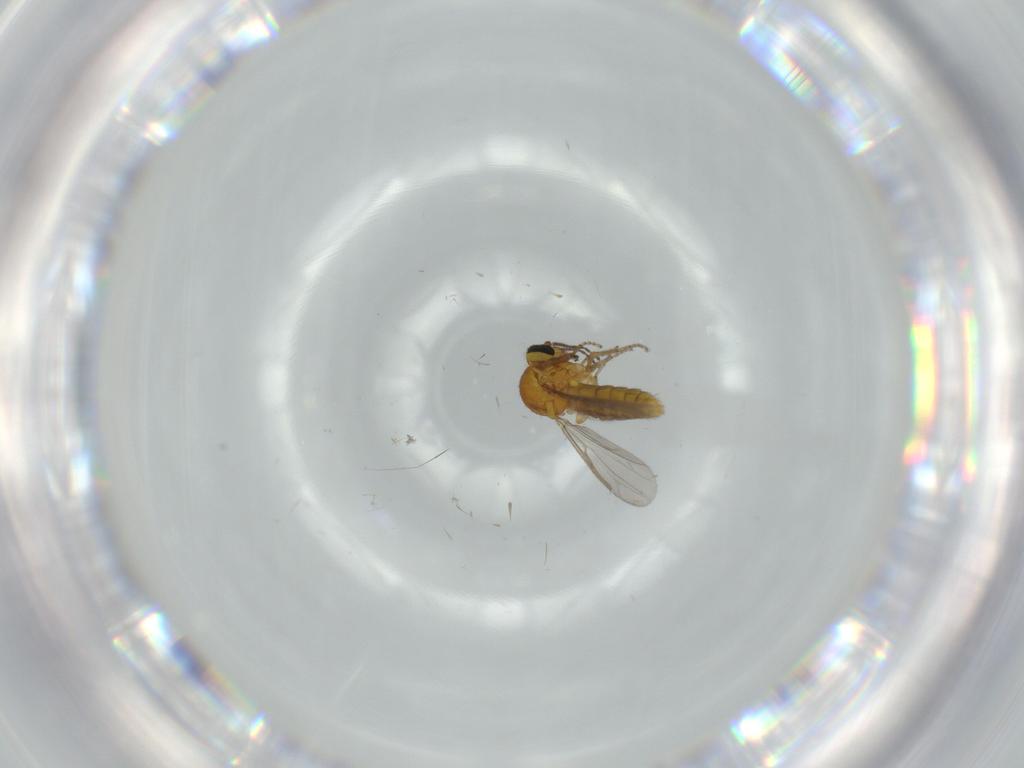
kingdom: Animalia
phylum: Arthropoda
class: Insecta
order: Diptera
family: Ceratopogonidae
